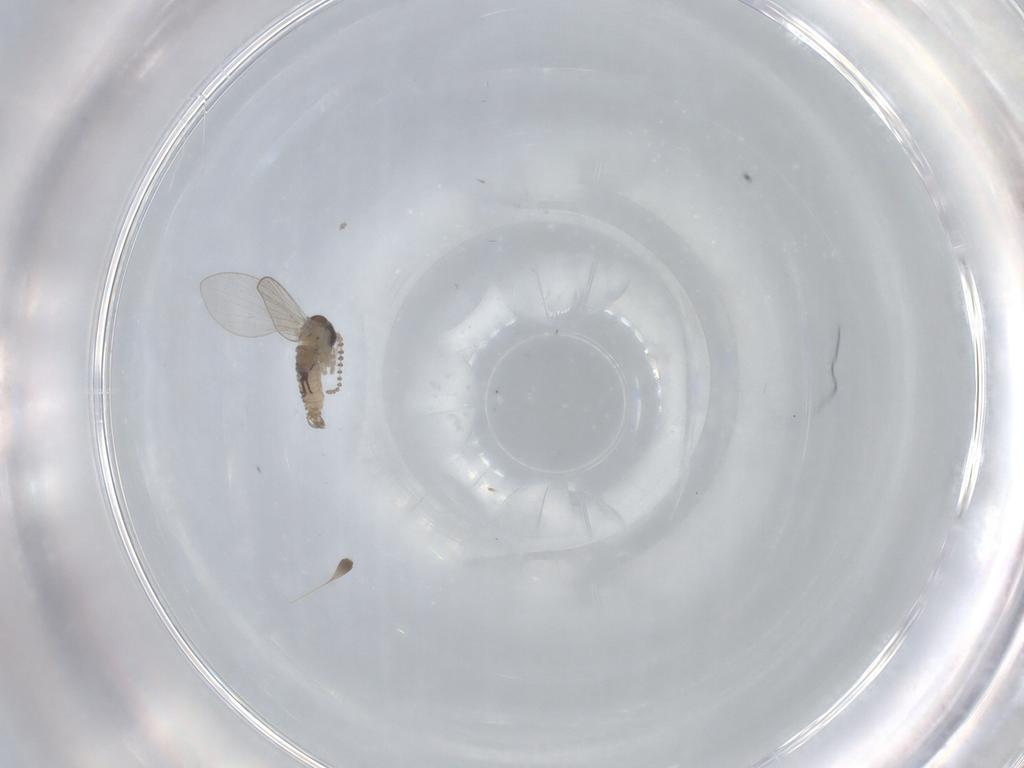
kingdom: Animalia
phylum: Arthropoda
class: Insecta
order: Diptera
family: Psychodidae
